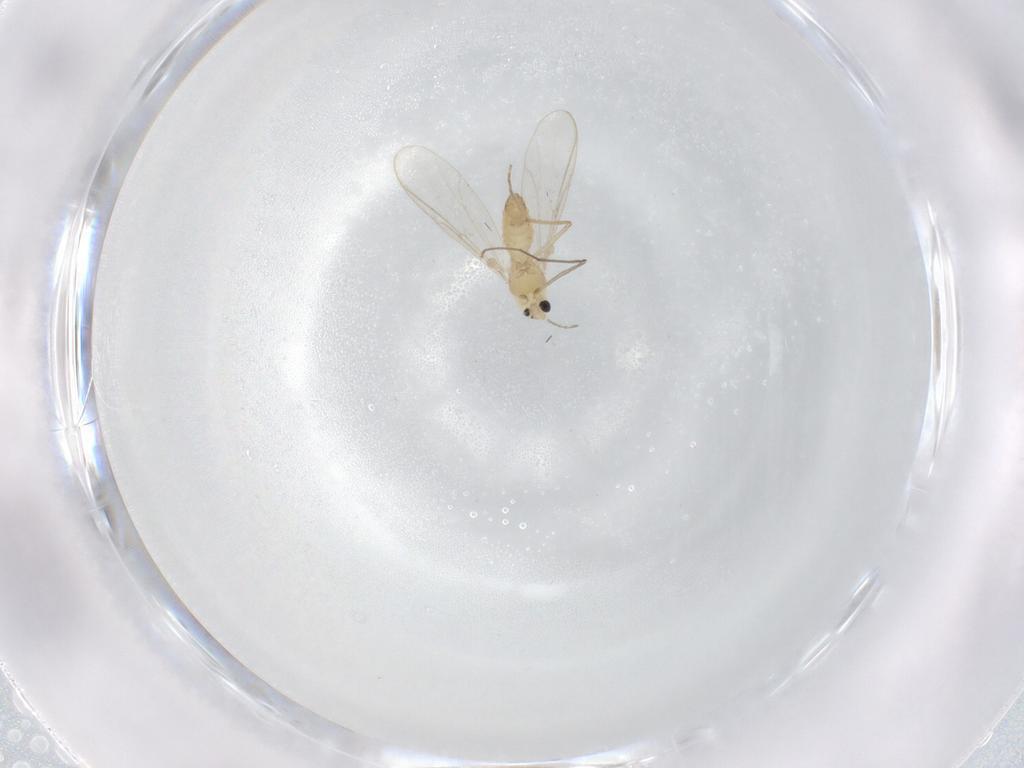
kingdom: Animalia
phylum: Arthropoda
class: Insecta
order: Diptera
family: Chironomidae
